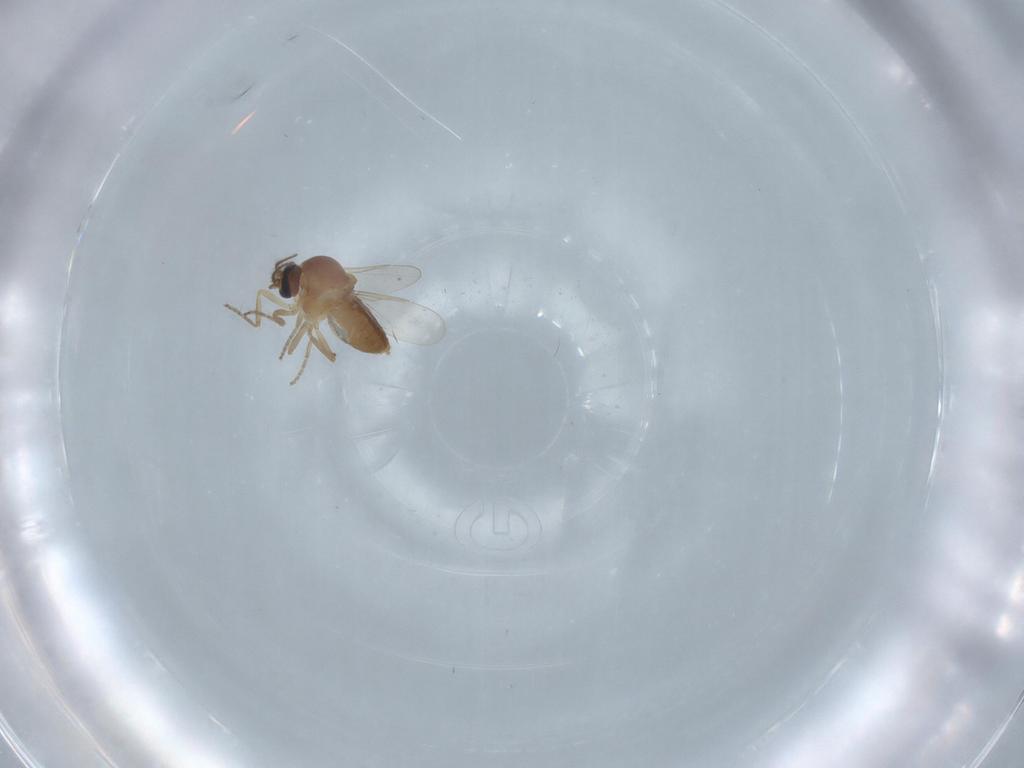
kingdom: Animalia
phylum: Arthropoda
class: Insecta
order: Diptera
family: Ceratopogonidae
